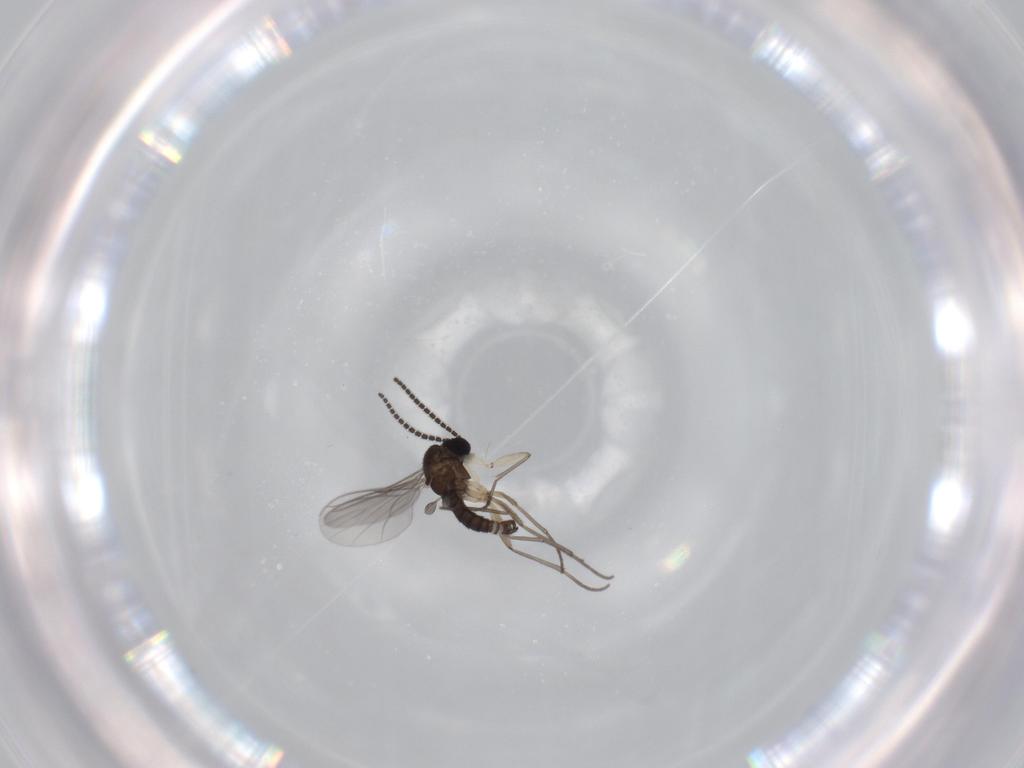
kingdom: Animalia
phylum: Arthropoda
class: Insecta
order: Diptera
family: Sciaridae
